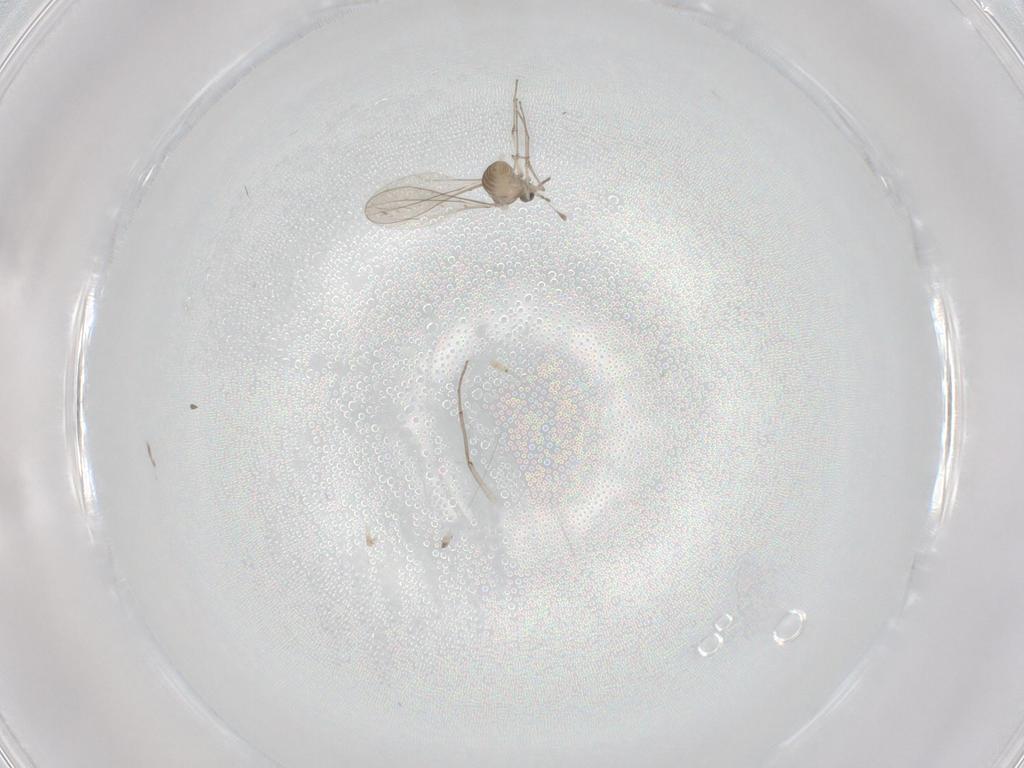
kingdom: Animalia
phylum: Arthropoda
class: Insecta
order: Diptera
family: Cecidomyiidae
